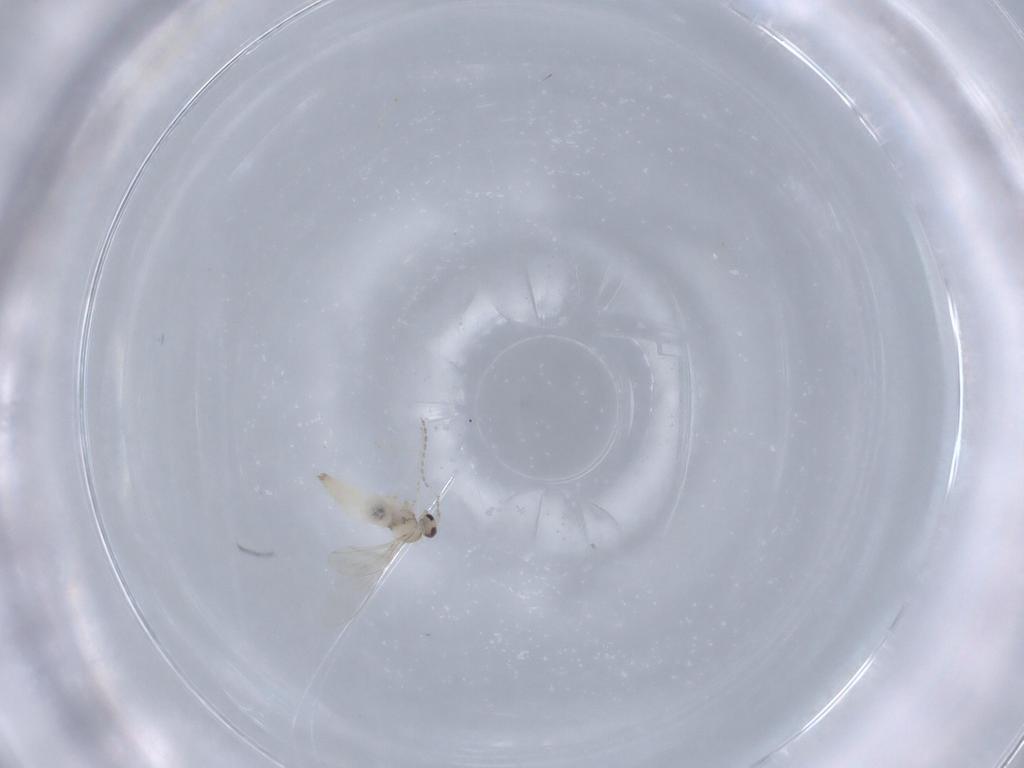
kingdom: Animalia
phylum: Arthropoda
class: Insecta
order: Diptera
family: Cecidomyiidae
